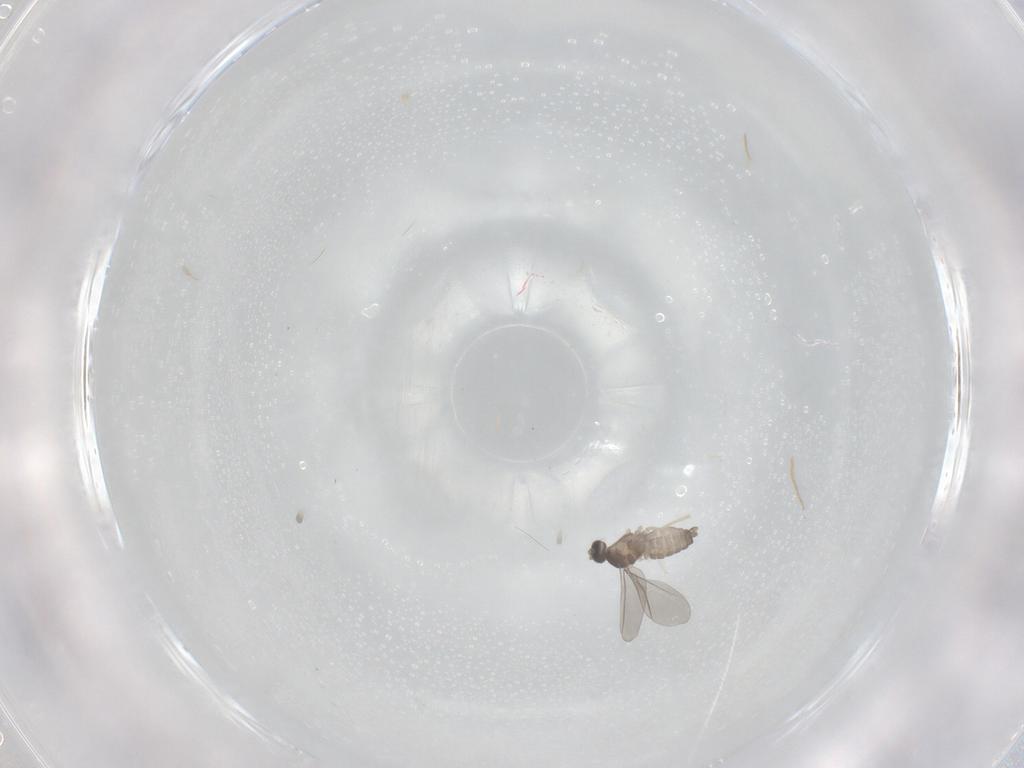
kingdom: Animalia
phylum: Arthropoda
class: Insecta
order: Diptera
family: Cecidomyiidae
